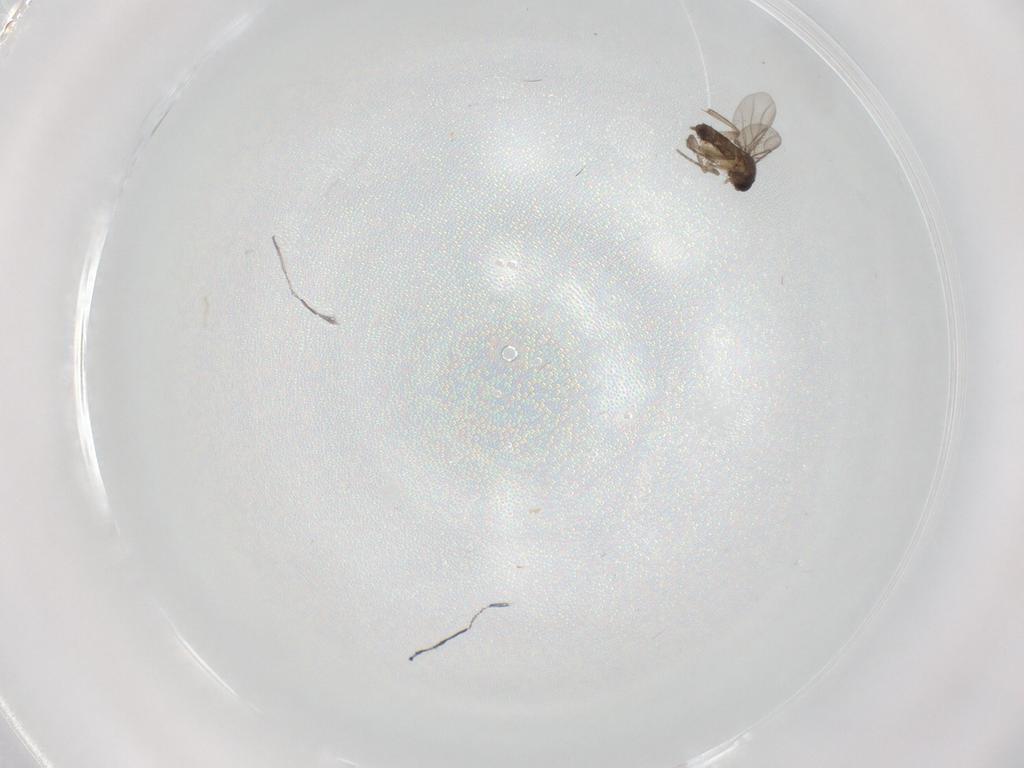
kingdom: Animalia
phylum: Arthropoda
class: Insecta
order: Diptera
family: Phoridae
